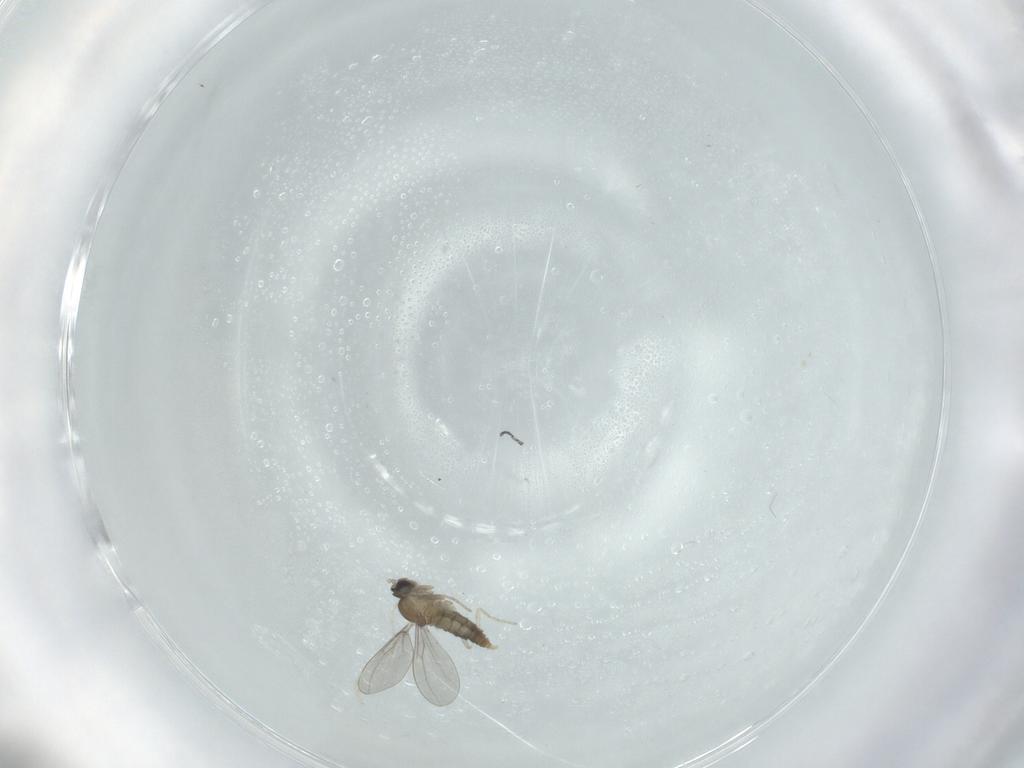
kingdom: Animalia
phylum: Arthropoda
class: Insecta
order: Diptera
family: Cecidomyiidae
